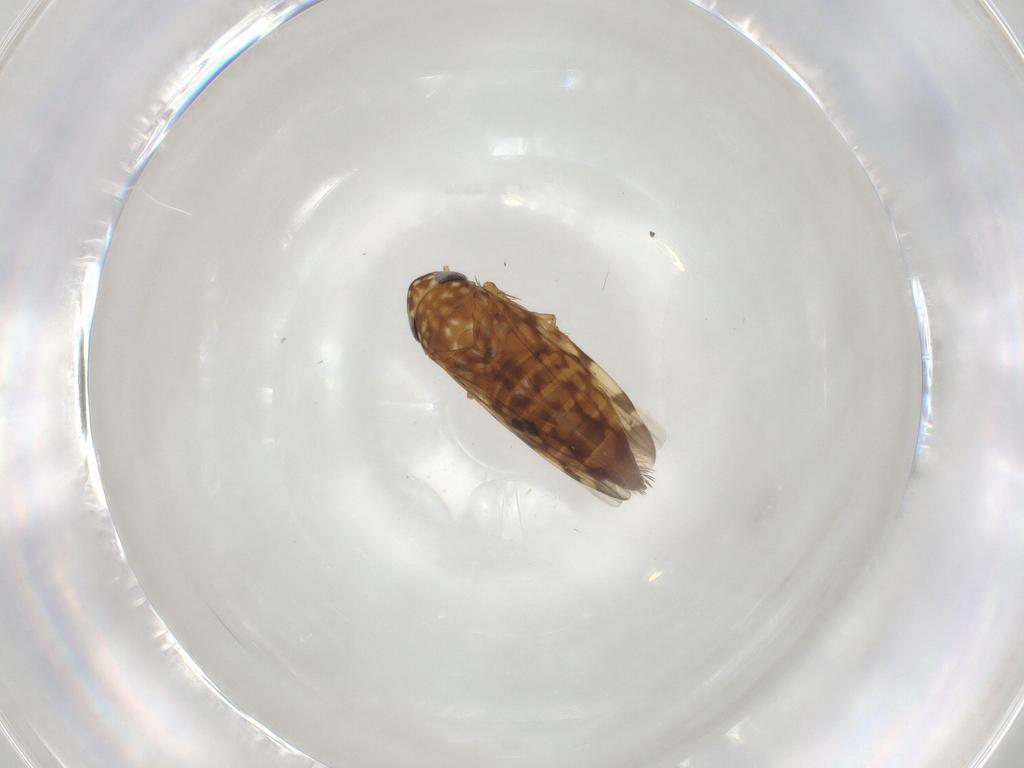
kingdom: Animalia
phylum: Arthropoda
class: Insecta
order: Hemiptera
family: Cicadellidae
